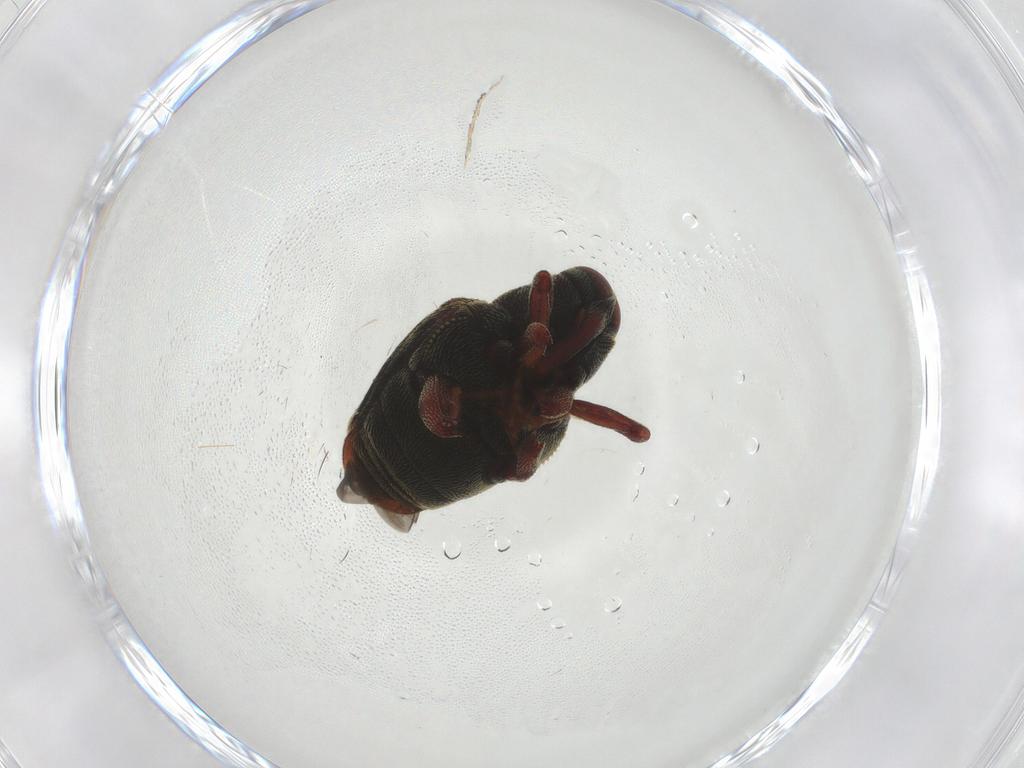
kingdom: Animalia
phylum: Arthropoda
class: Insecta
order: Coleoptera
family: Curculionidae
